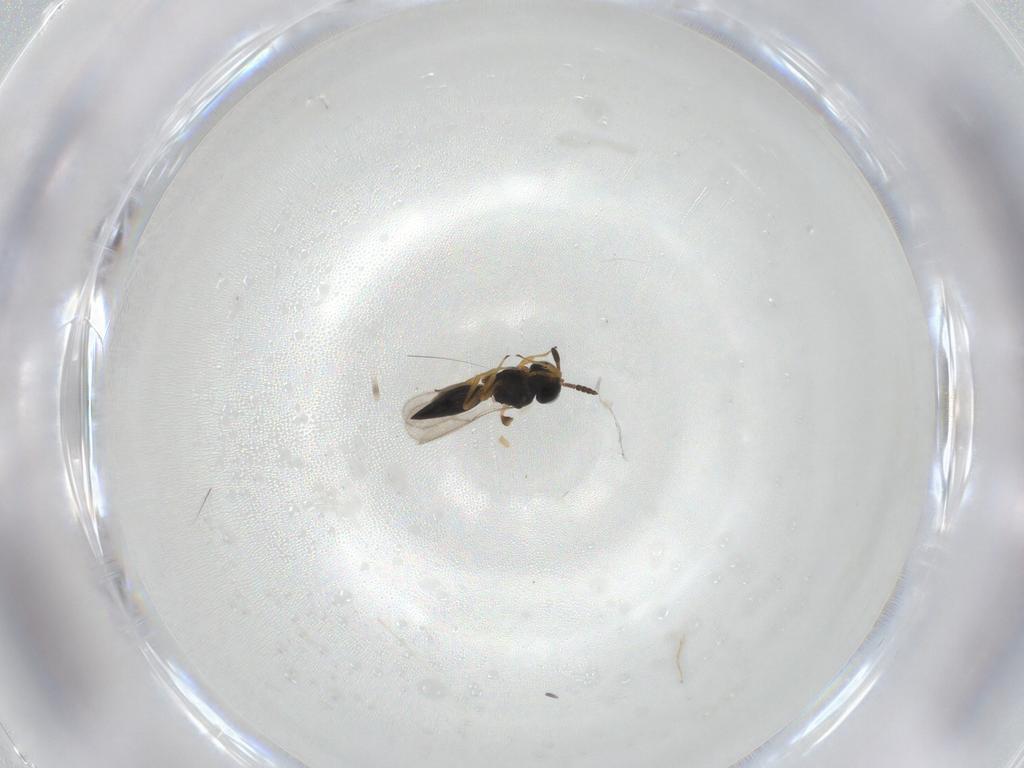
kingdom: Animalia
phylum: Arthropoda
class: Insecta
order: Hymenoptera
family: Scelionidae
